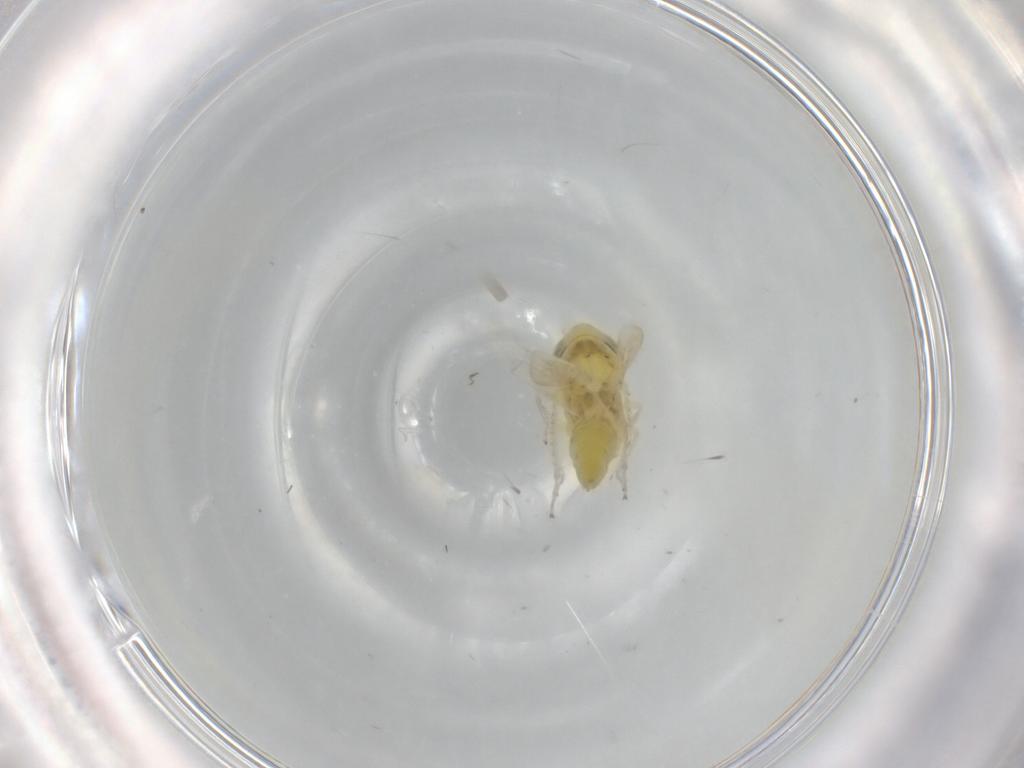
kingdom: Animalia
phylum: Arthropoda
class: Insecta
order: Hemiptera
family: Cicadellidae
